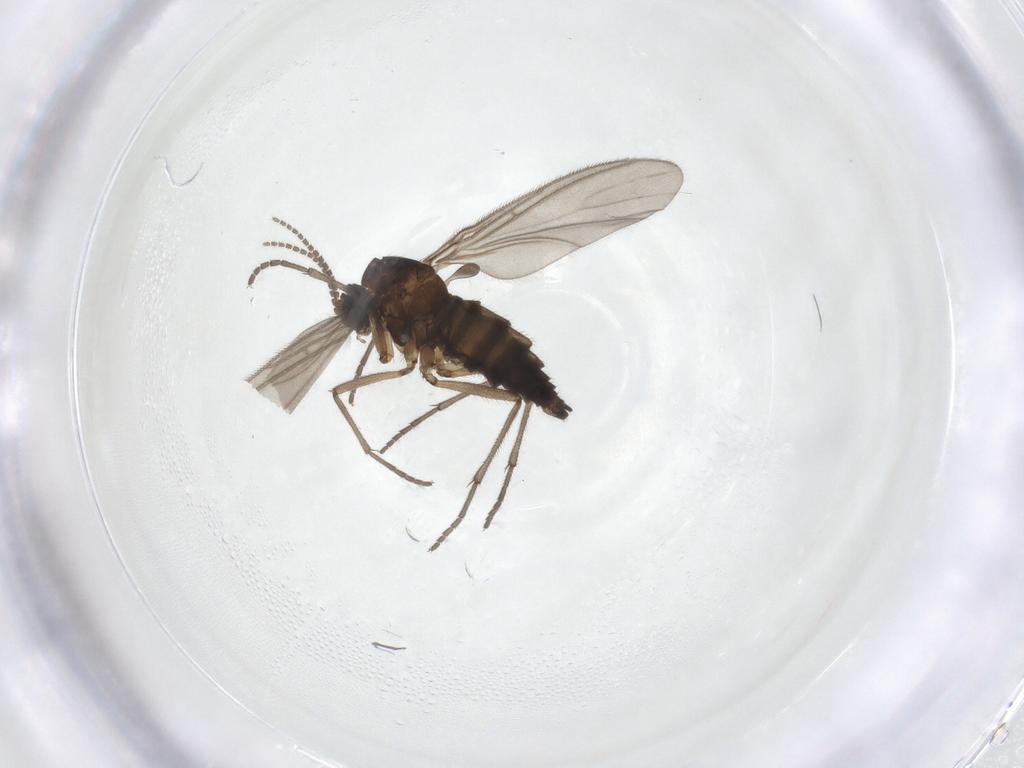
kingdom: Animalia
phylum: Arthropoda
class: Insecta
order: Diptera
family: Sciaridae
